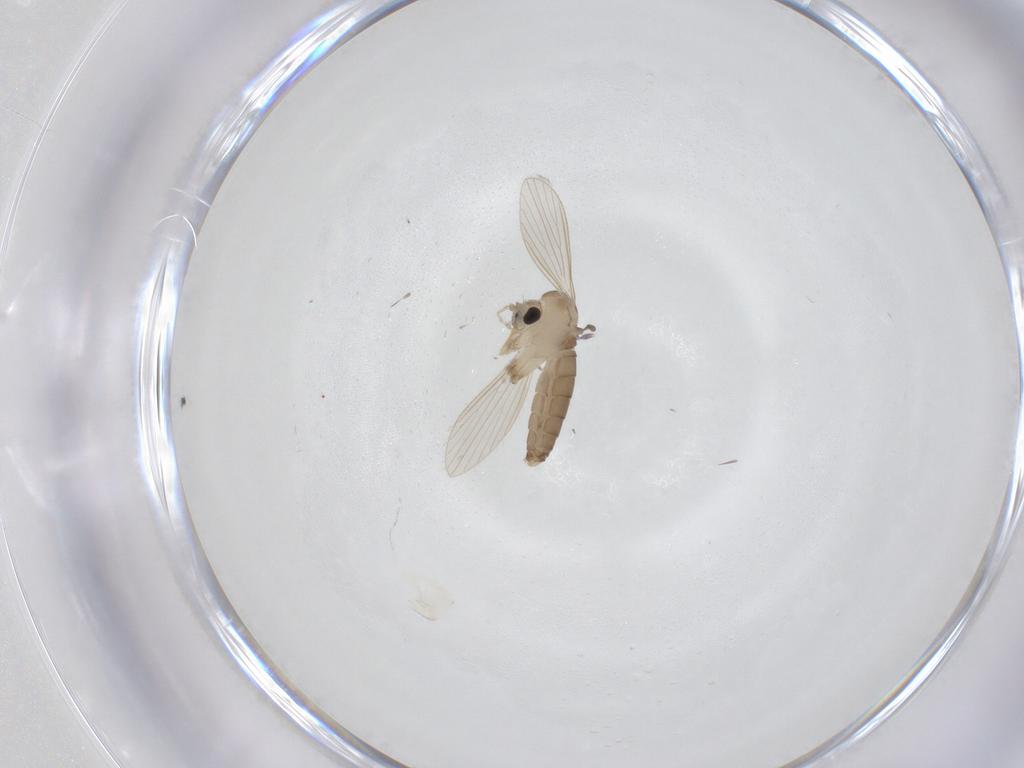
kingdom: Animalia
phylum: Arthropoda
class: Insecta
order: Diptera
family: Psychodidae
